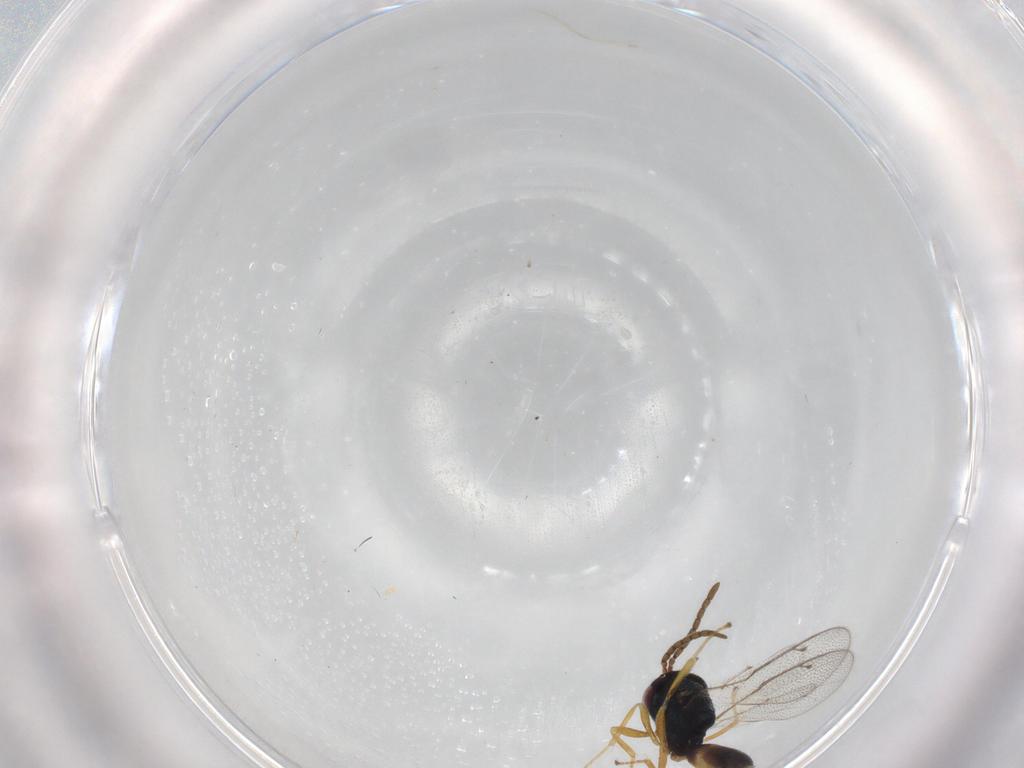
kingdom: Animalia
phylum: Arthropoda
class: Insecta
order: Hymenoptera
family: Pteromalidae
